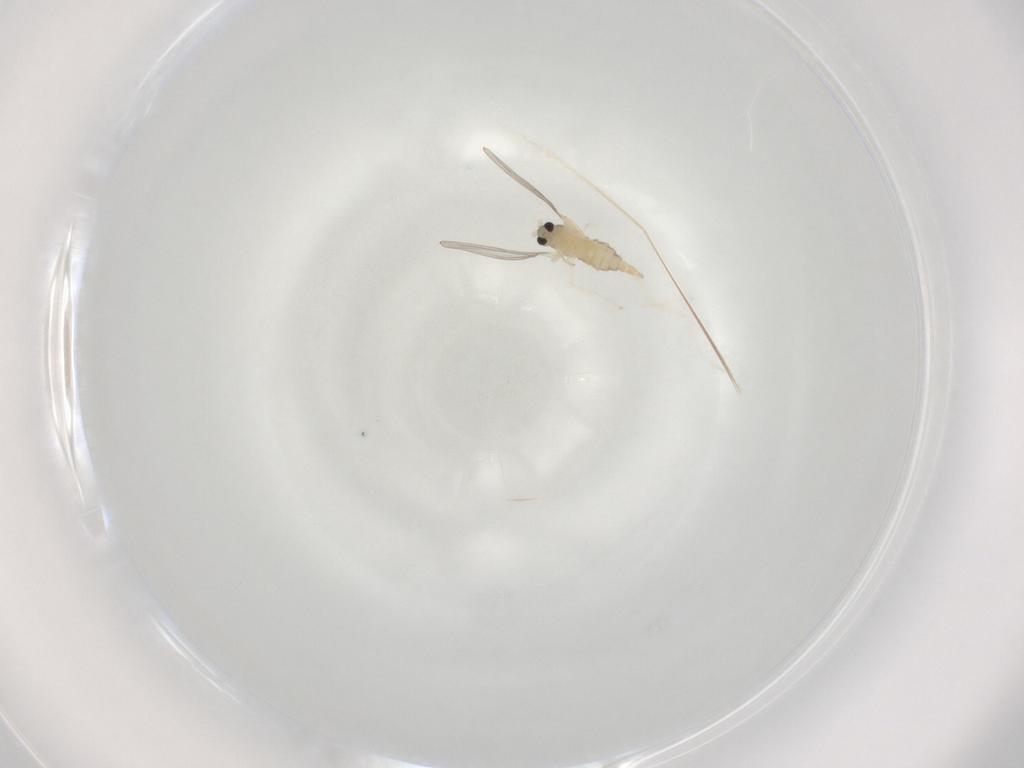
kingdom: Animalia
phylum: Arthropoda
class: Insecta
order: Diptera
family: Cecidomyiidae
